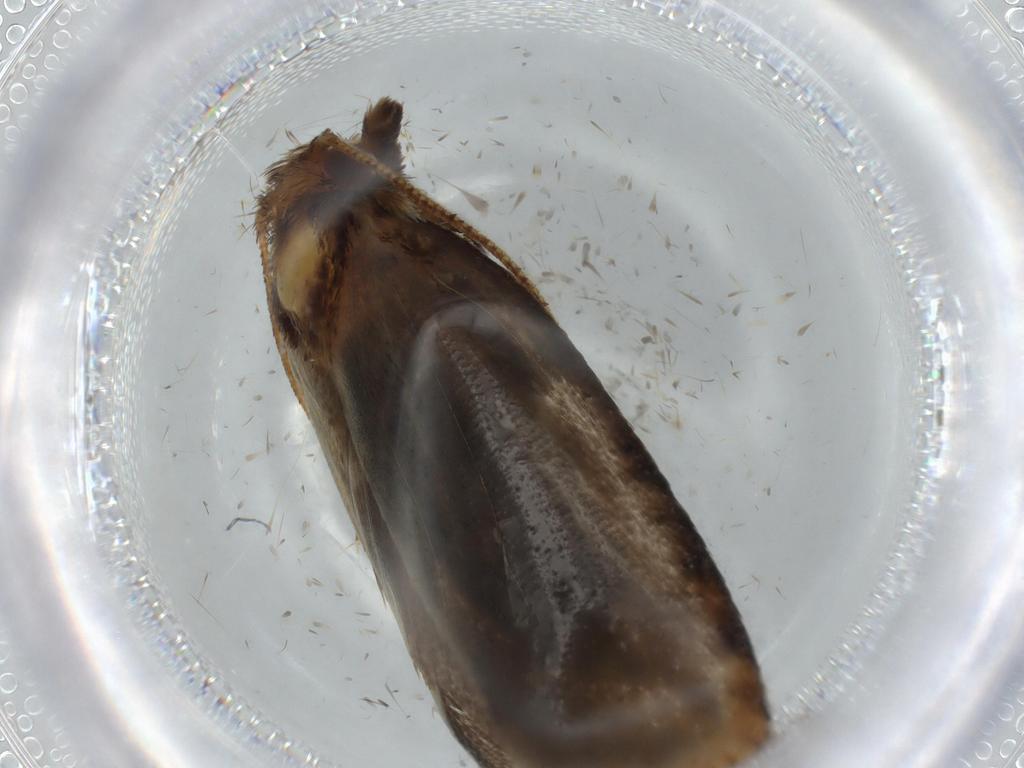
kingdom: Animalia
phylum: Arthropoda
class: Insecta
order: Lepidoptera
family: Tineidae
